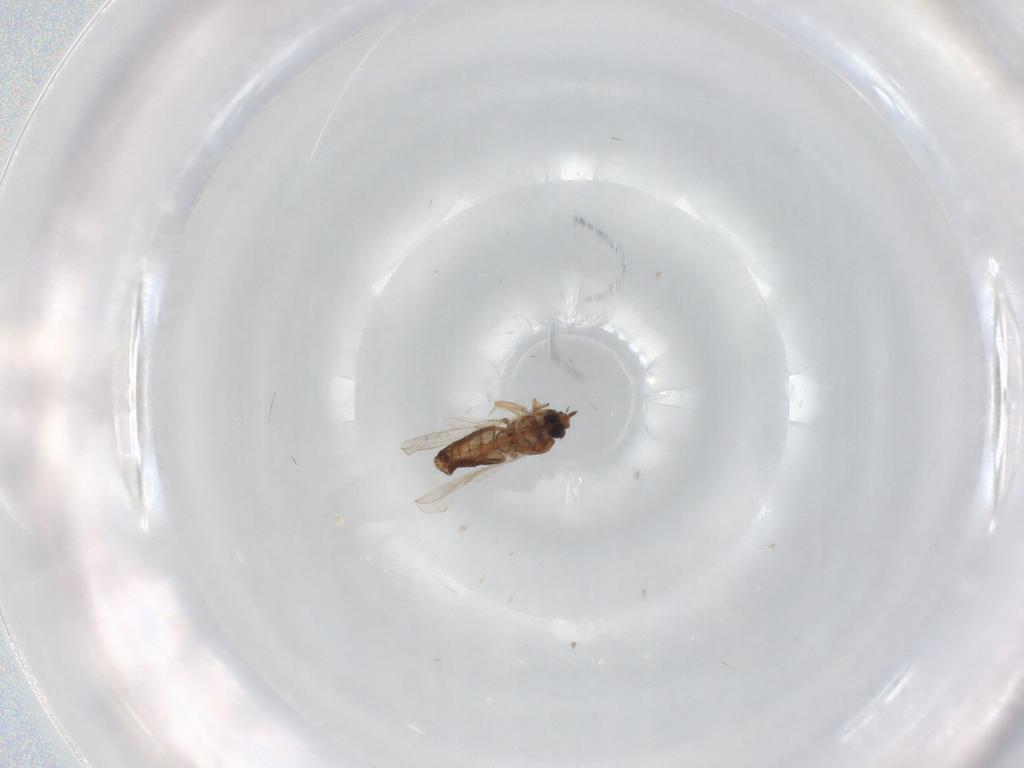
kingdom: Animalia
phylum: Arthropoda
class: Insecta
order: Diptera
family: Ceratopogonidae
